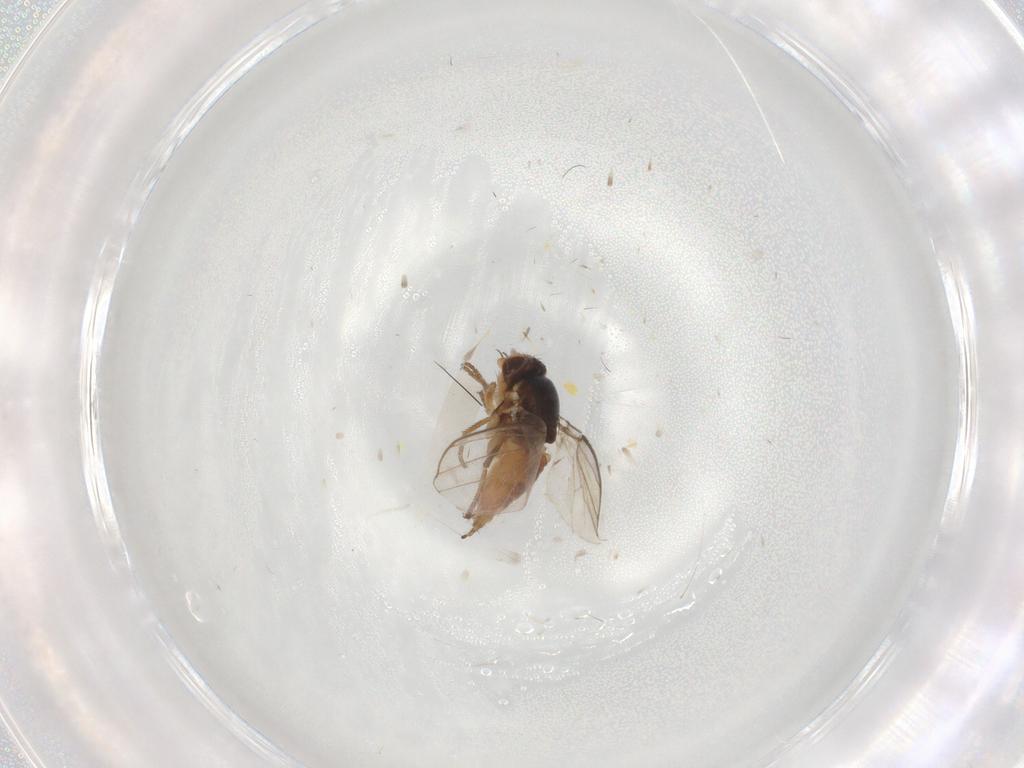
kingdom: Animalia
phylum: Arthropoda
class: Insecta
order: Diptera
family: Chloropidae
